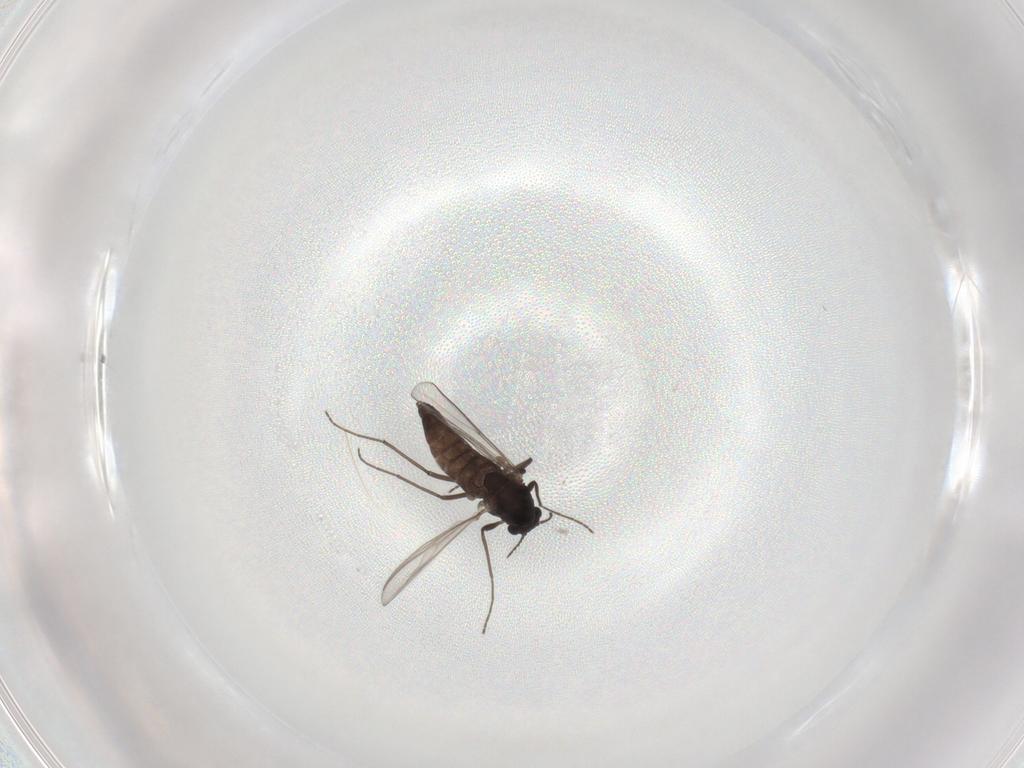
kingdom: Animalia
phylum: Arthropoda
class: Insecta
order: Diptera
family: Chironomidae
